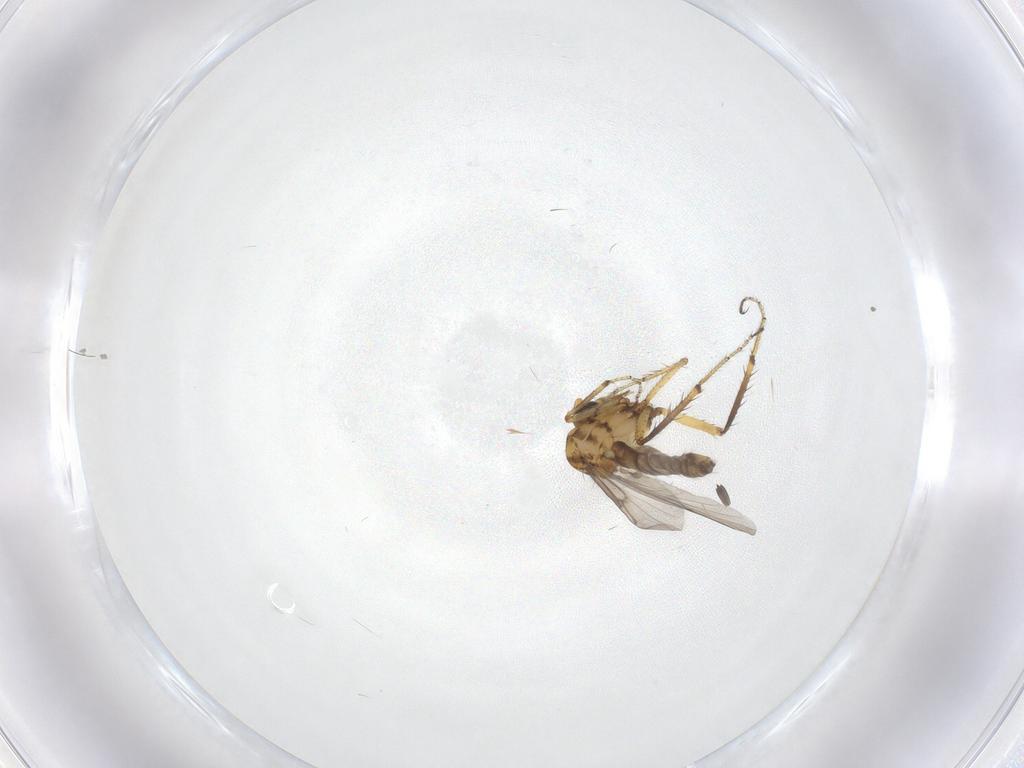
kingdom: Animalia
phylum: Arthropoda
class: Insecta
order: Diptera
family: Ceratopogonidae
